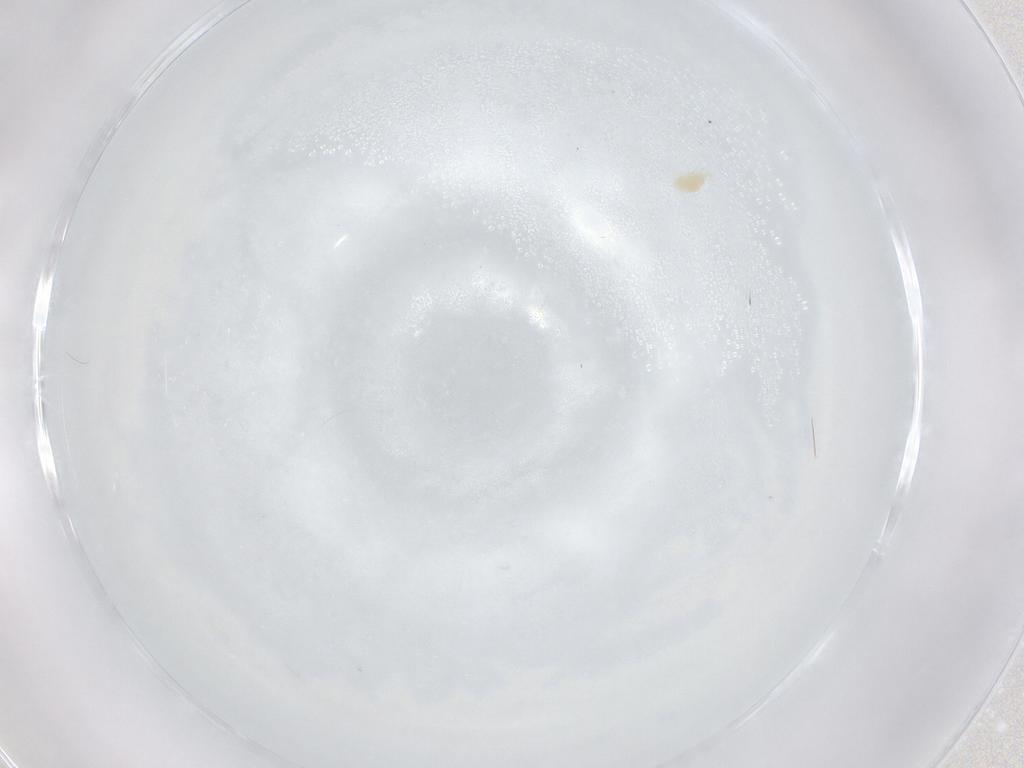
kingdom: Animalia
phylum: Arthropoda
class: Arachnida
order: Trombidiformes
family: Eupodidae
